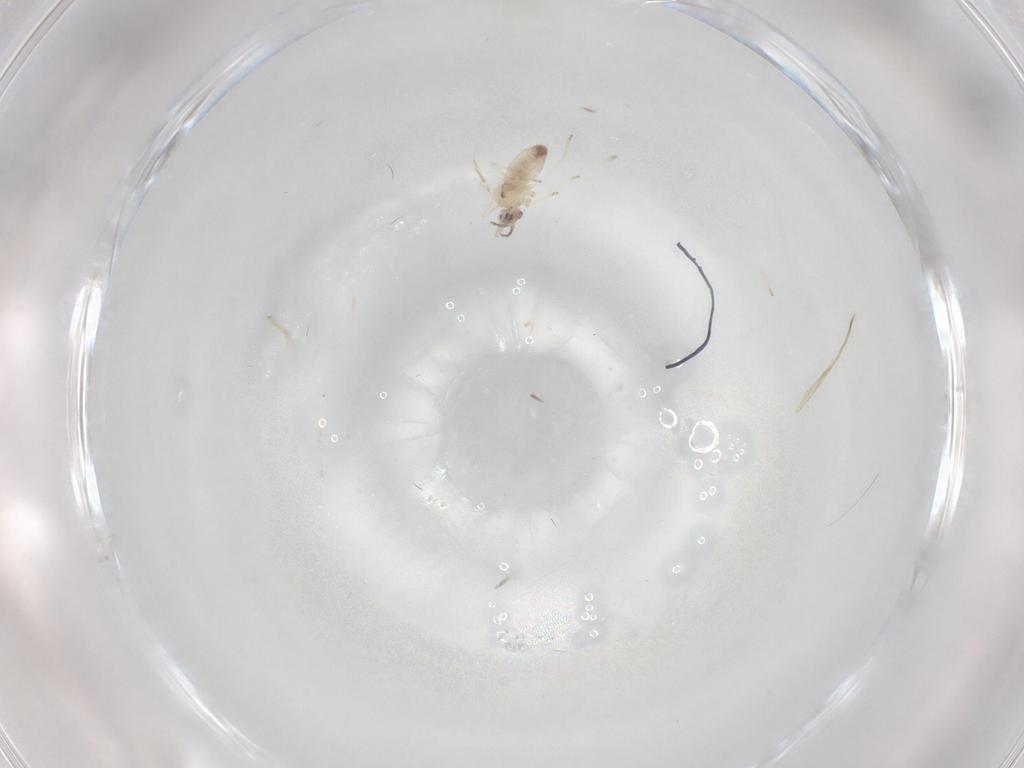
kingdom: Animalia
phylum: Arthropoda
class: Insecta
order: Diptera
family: Cecidomyiidae
